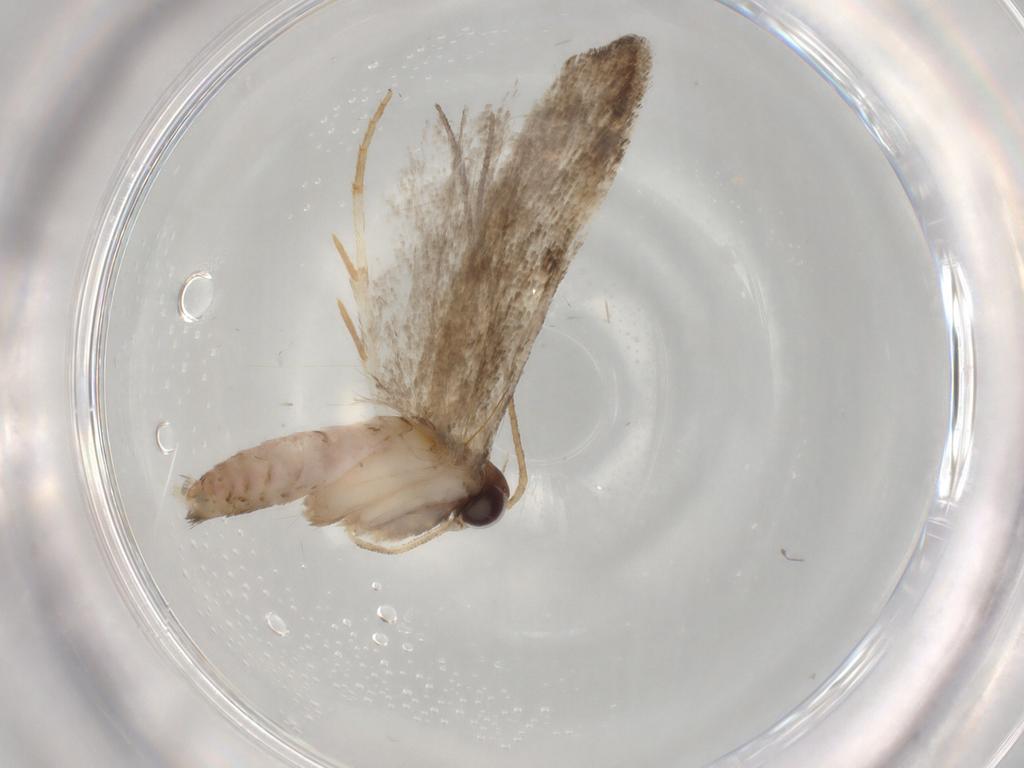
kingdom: Animalia
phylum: Arthropoda
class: Insecta
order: Lepidoptera
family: Gelechiidae
